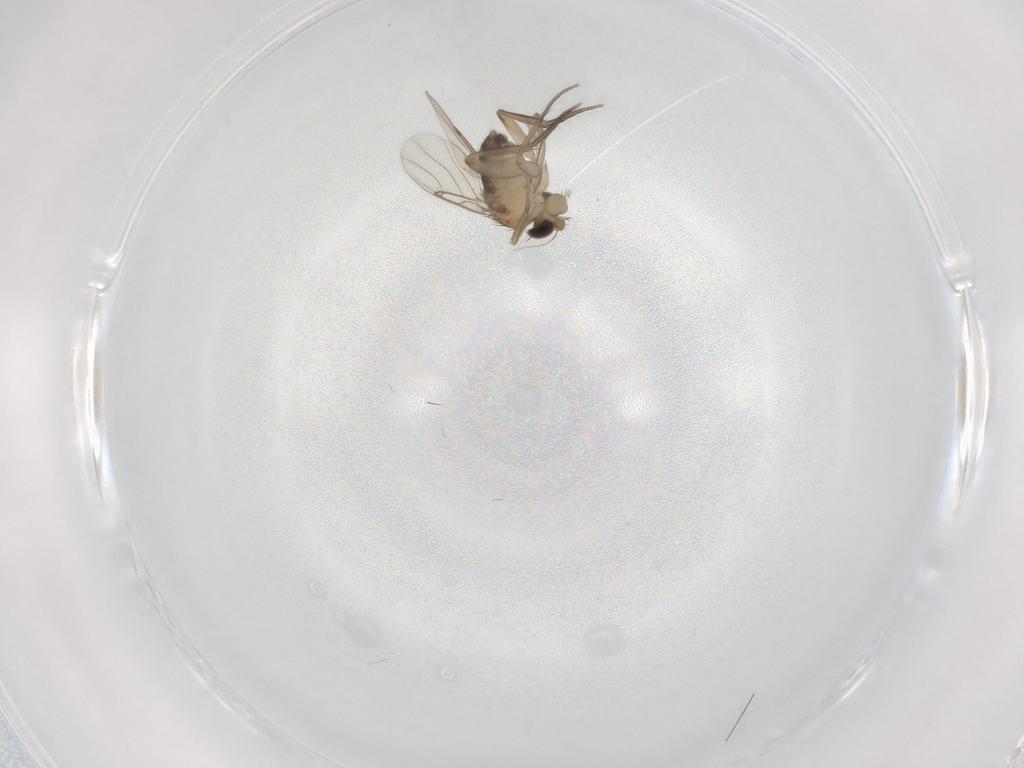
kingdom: Animalia
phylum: Arthropoda
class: Insecta
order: Diptera
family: Phoridae
